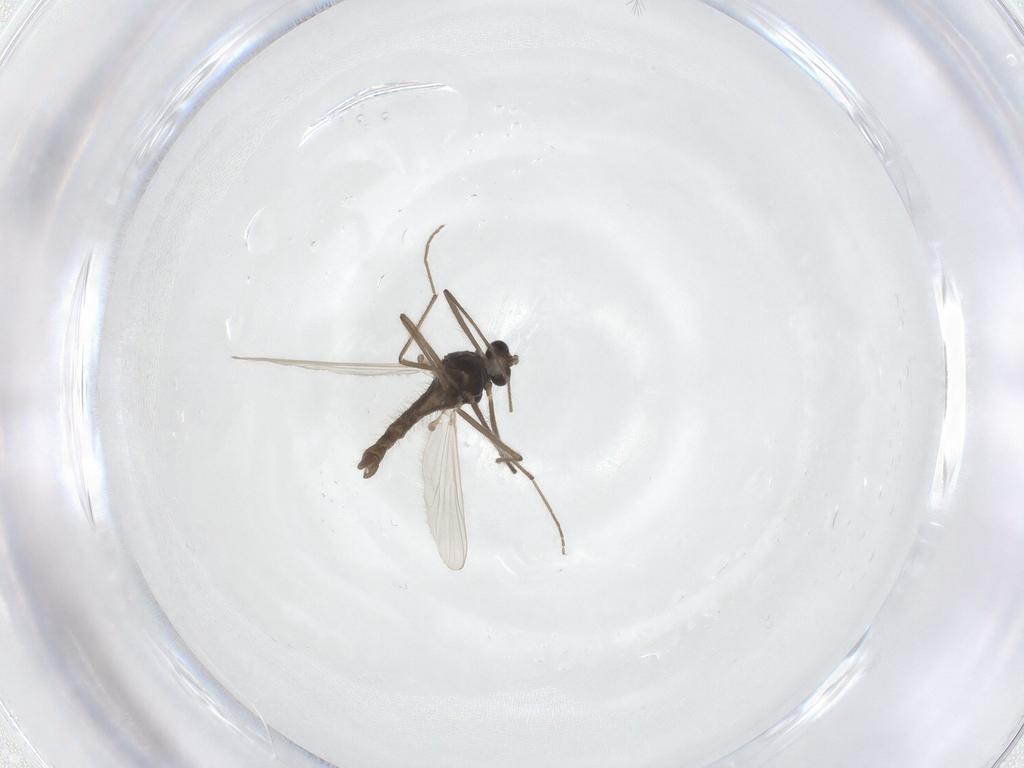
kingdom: Animalia
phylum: Arthropoda
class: Insecta
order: Diptera
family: Chironomidae
